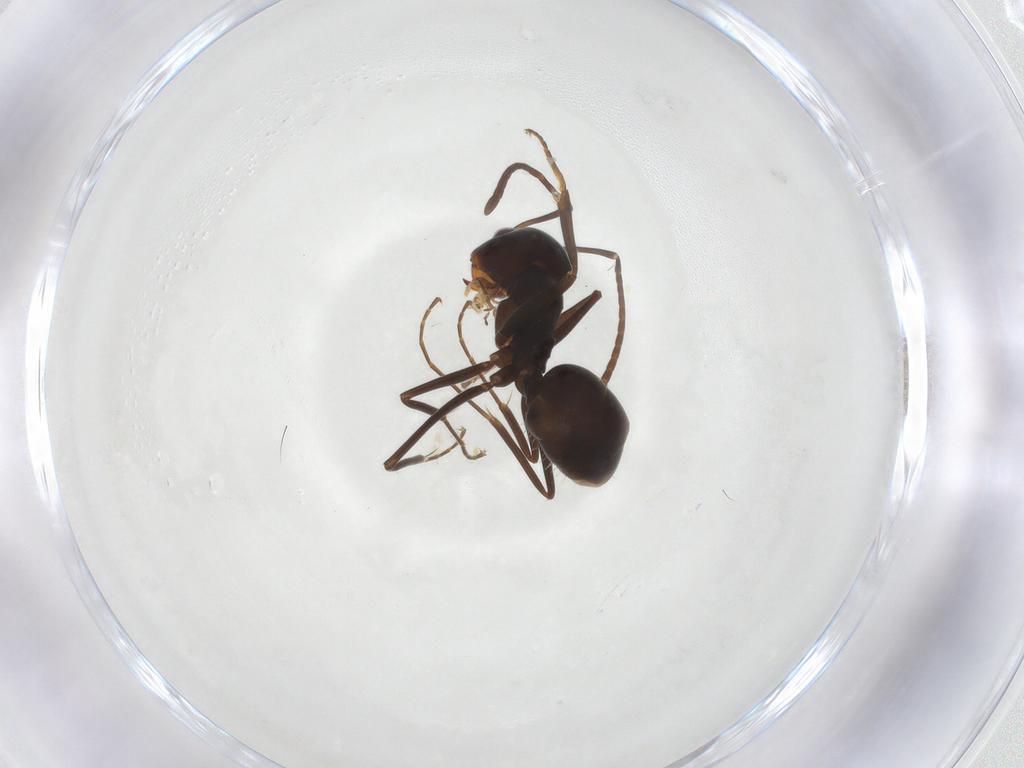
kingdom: Animalia
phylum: Arthropoda
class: Insecta
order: Hymenoptera
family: Formicidae
